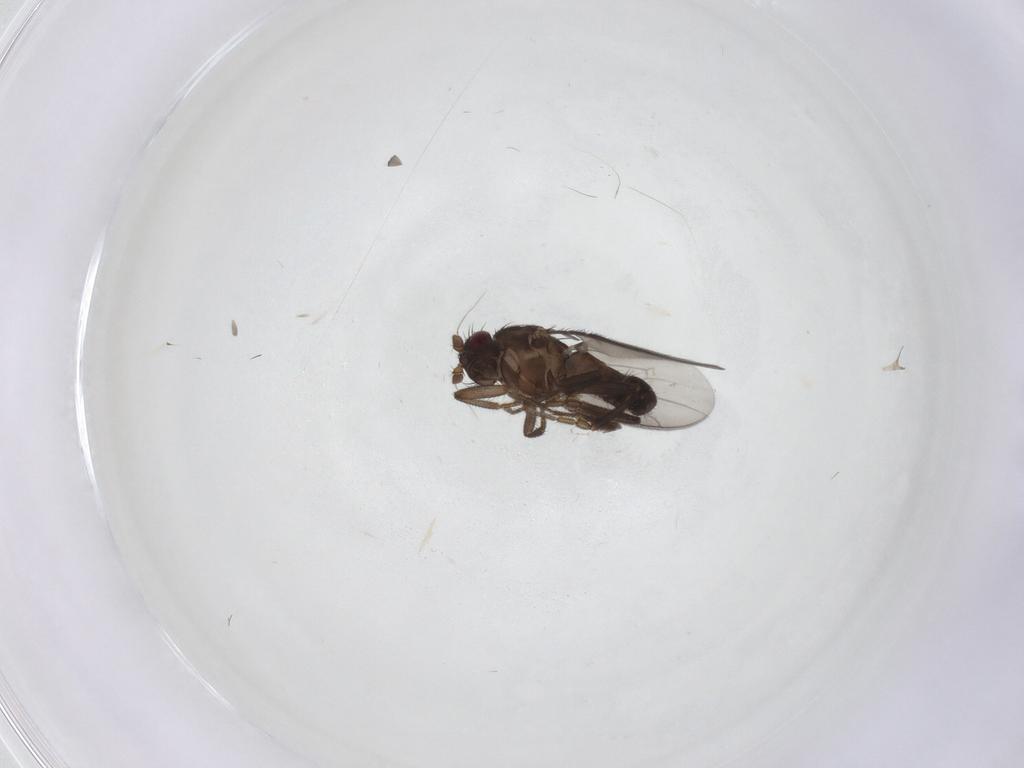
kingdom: Animalia
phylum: Arthropoda
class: Insecta
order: Diptera
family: Sphaeroceridae
